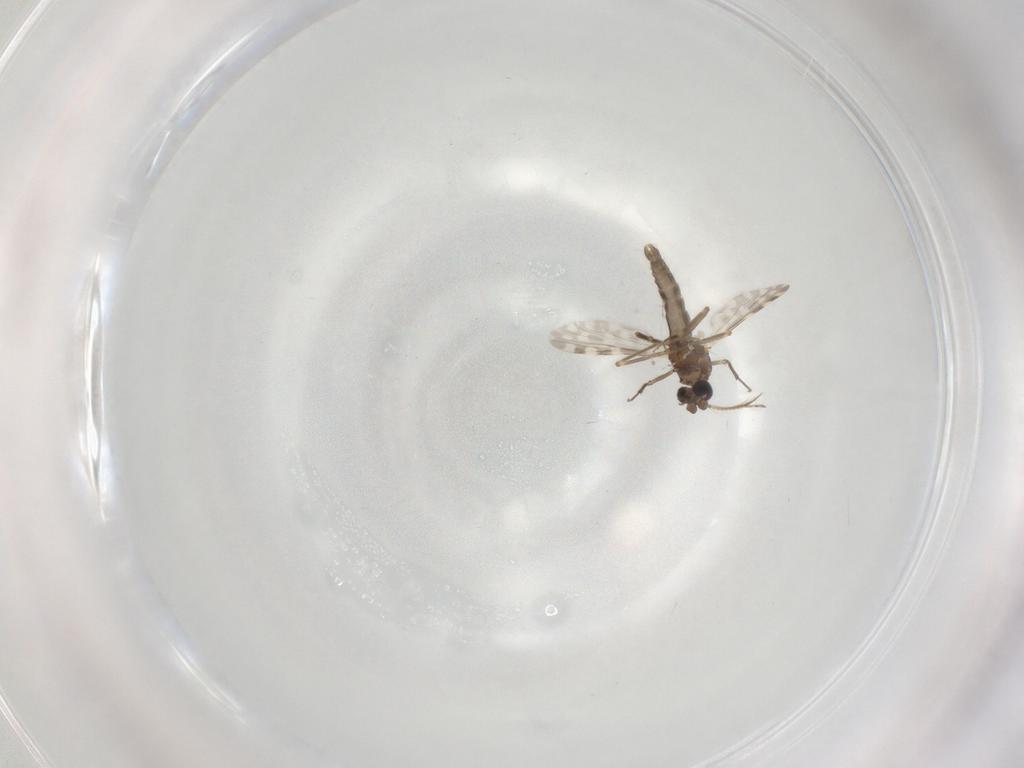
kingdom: Animalia
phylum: Arthropoda
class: Insecta
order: Diptera
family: Ceratopogonidae
